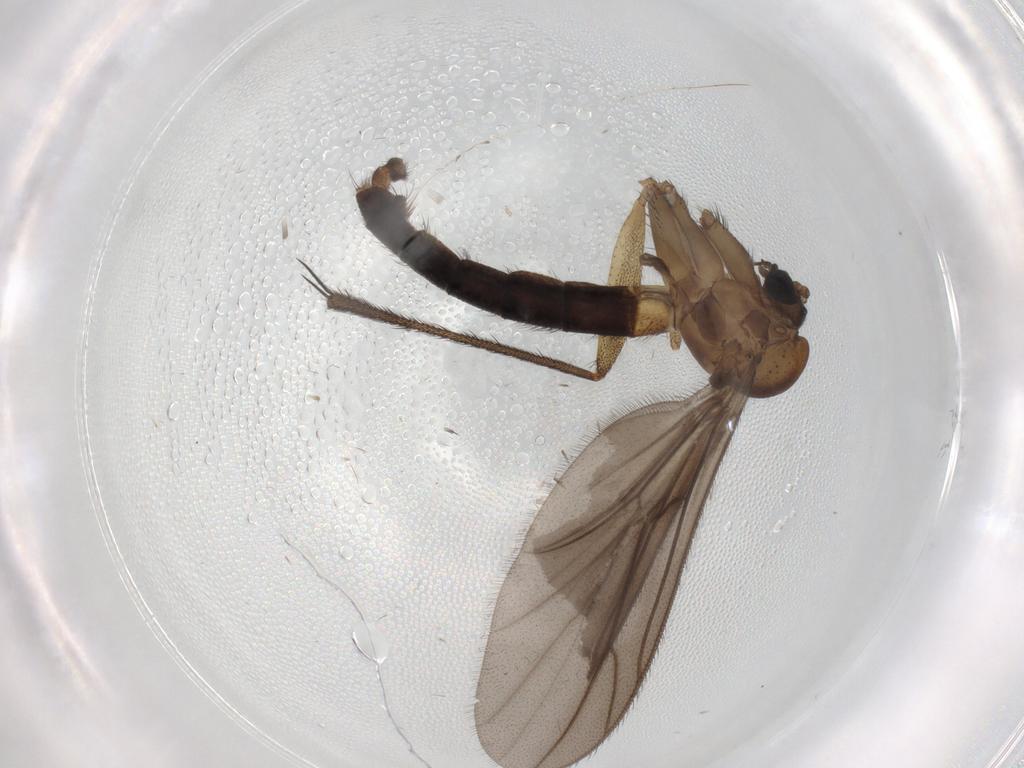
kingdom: Animalia
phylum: Arthropoda
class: Insecta
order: Diptera
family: Ditomyiidae
